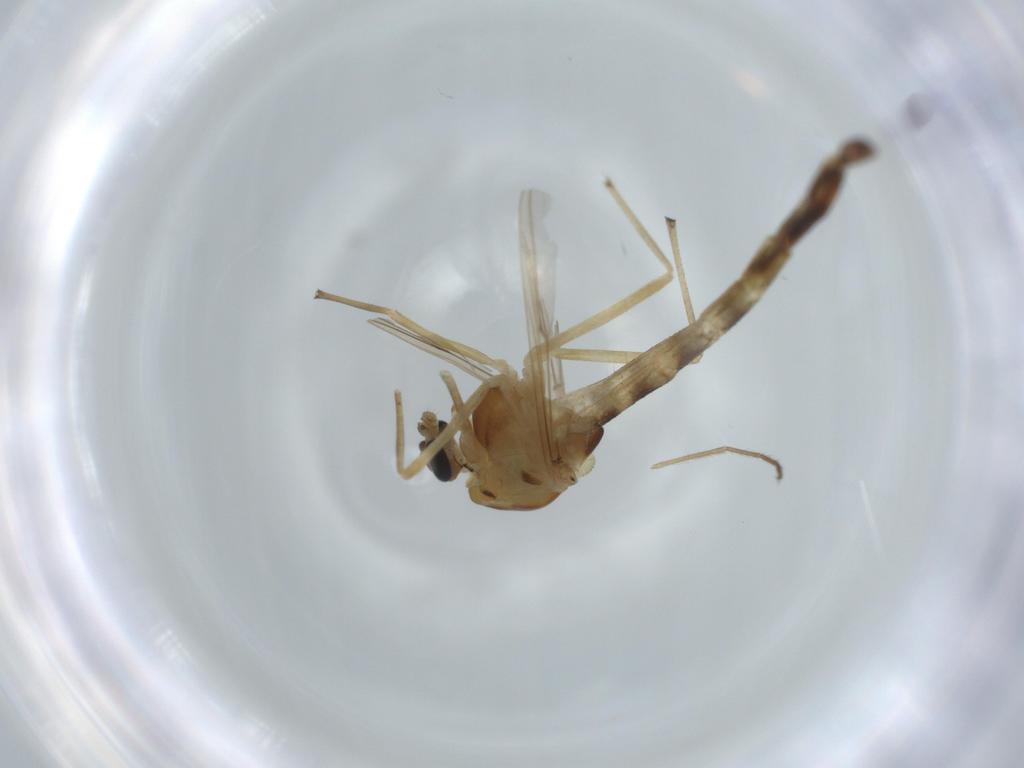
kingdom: Animalia
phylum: Arthropoda
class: Insecta
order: Diptera
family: Chironomidae
